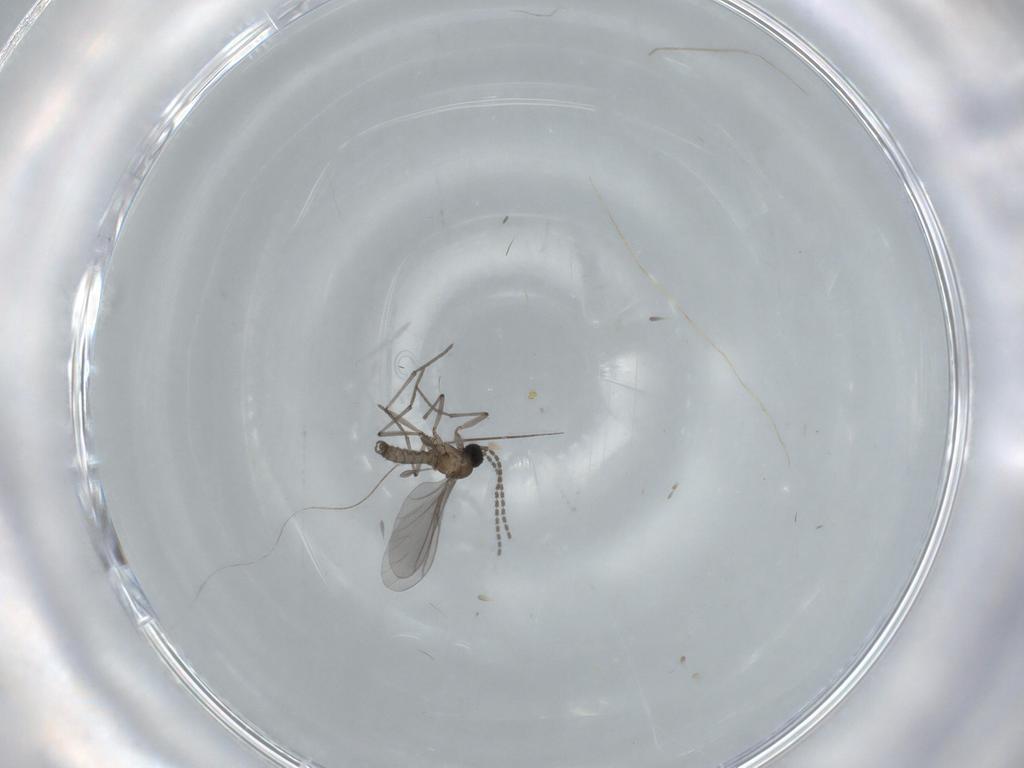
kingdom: Animalia
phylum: Arthropoda
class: Insecta
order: Diptera
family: Sciaridae
